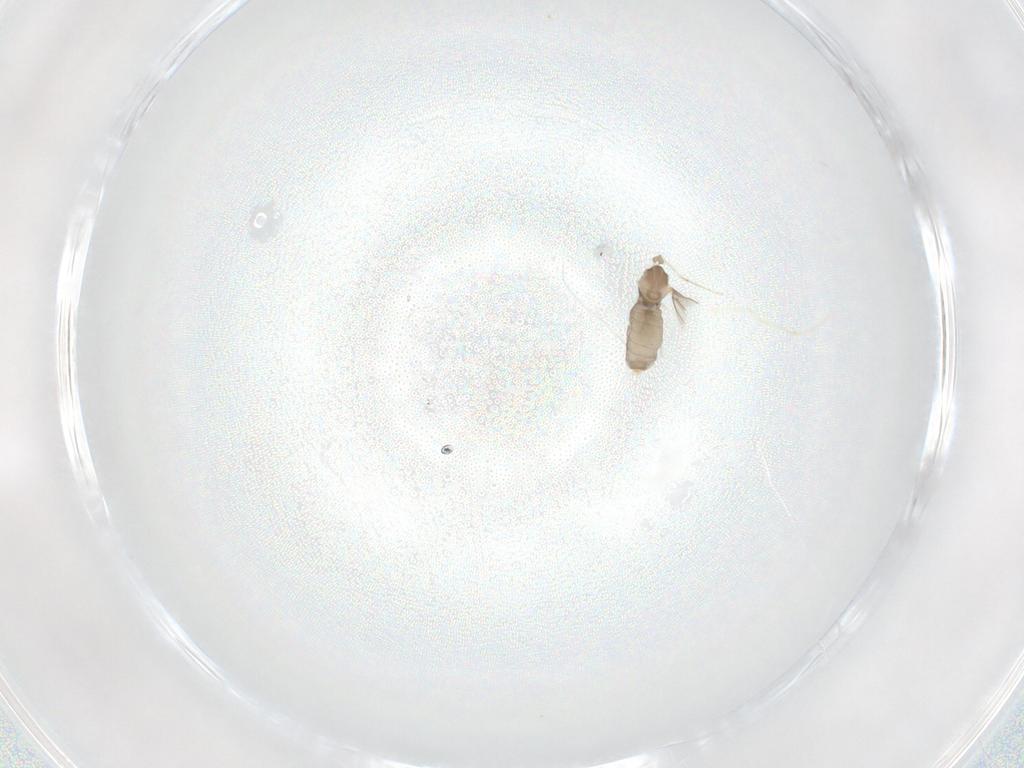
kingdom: Animalia
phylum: Arthropoda
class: Insecta
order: Diptera
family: Cecidomyiidae
